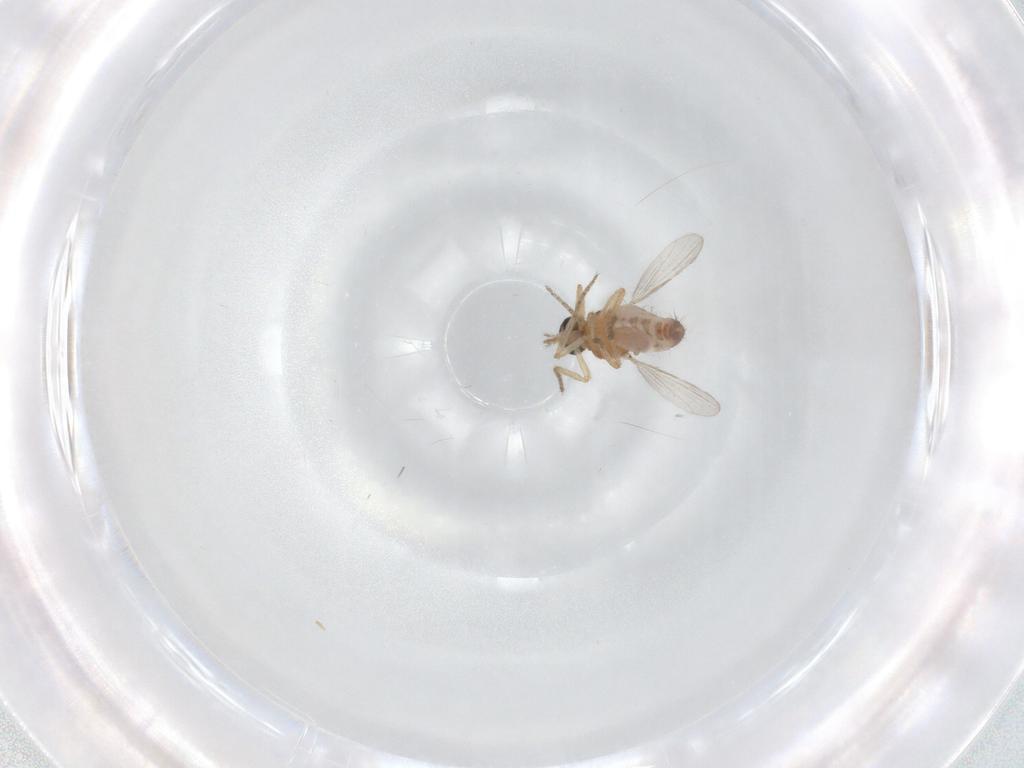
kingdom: Animalia
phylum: Arthropoda
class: Insecta
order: Diptera
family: Ceratopogonidae
